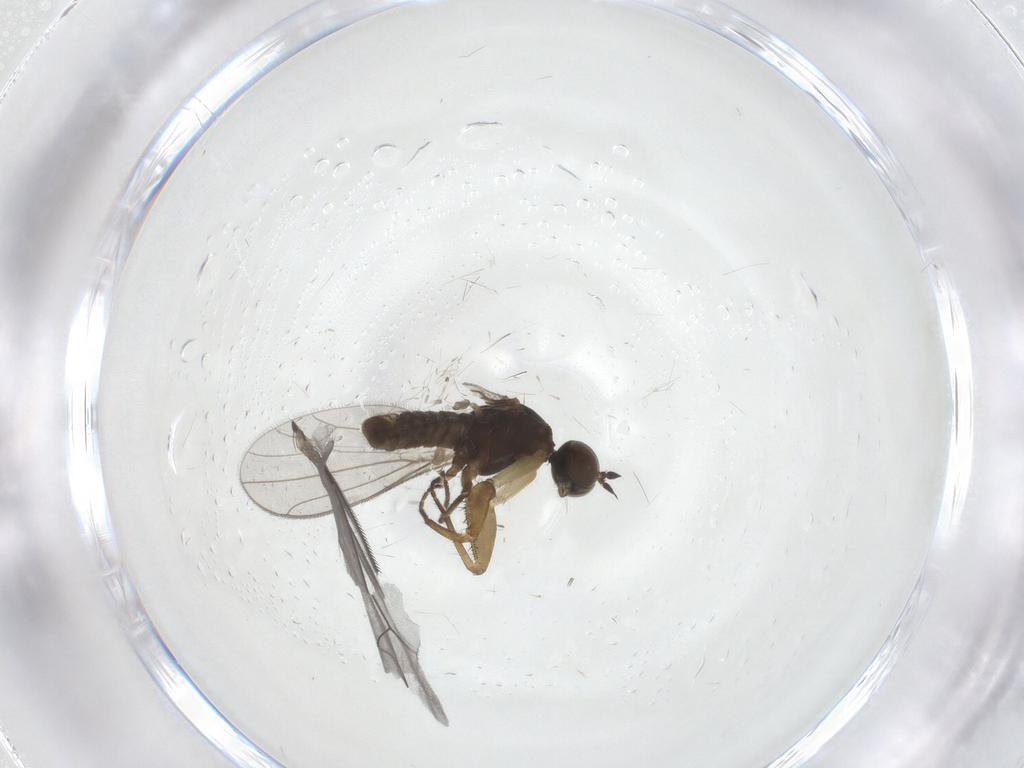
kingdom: Animalia
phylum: Arthropoda
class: Insecta
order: Diptera
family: Empididae
